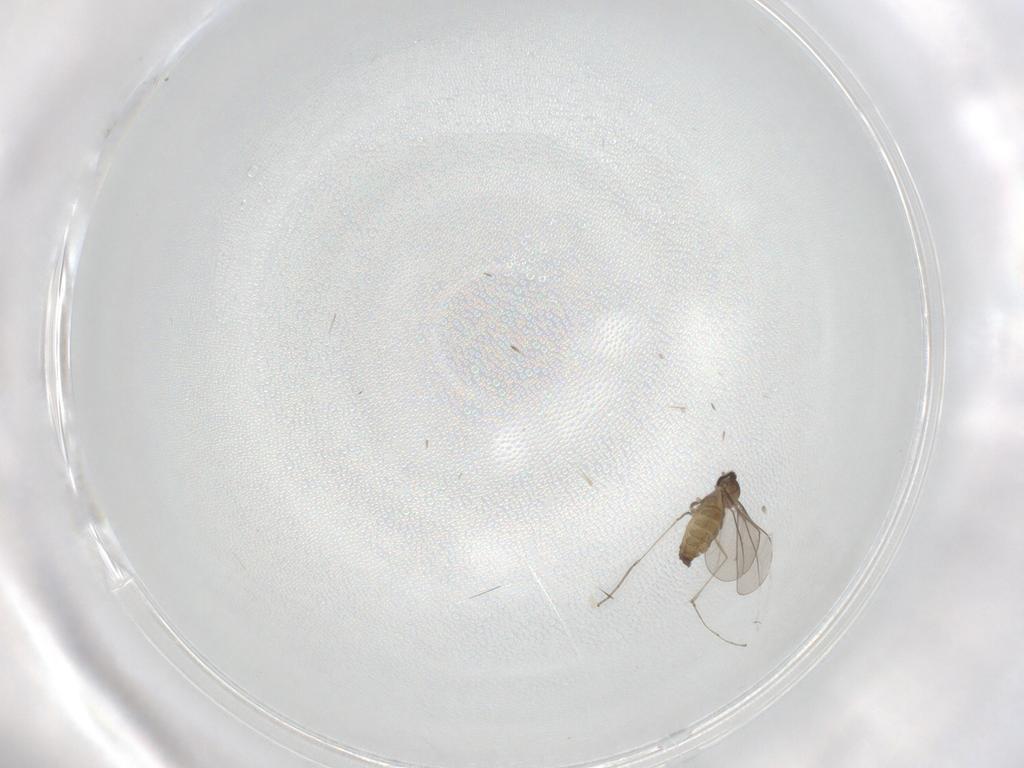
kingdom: Animalia
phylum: Arthropoda
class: Insecta
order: Diptera
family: Cecidomyiidae
